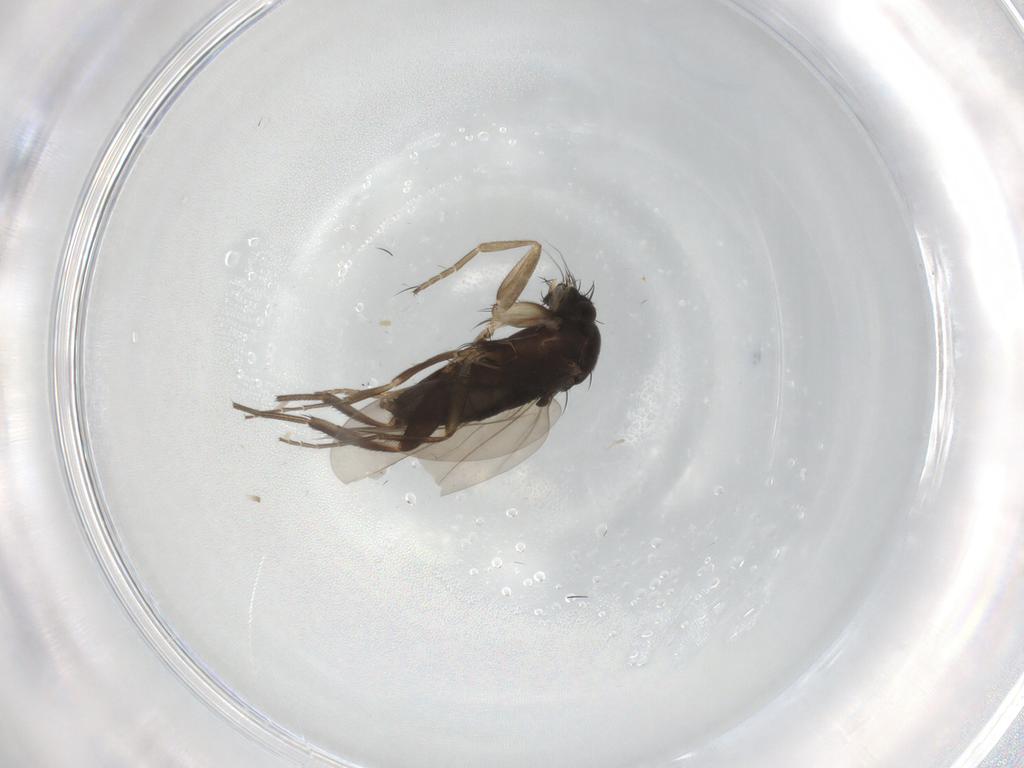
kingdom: Animalia
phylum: Arthropoda
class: Insecta
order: Diptera
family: Phoridae
